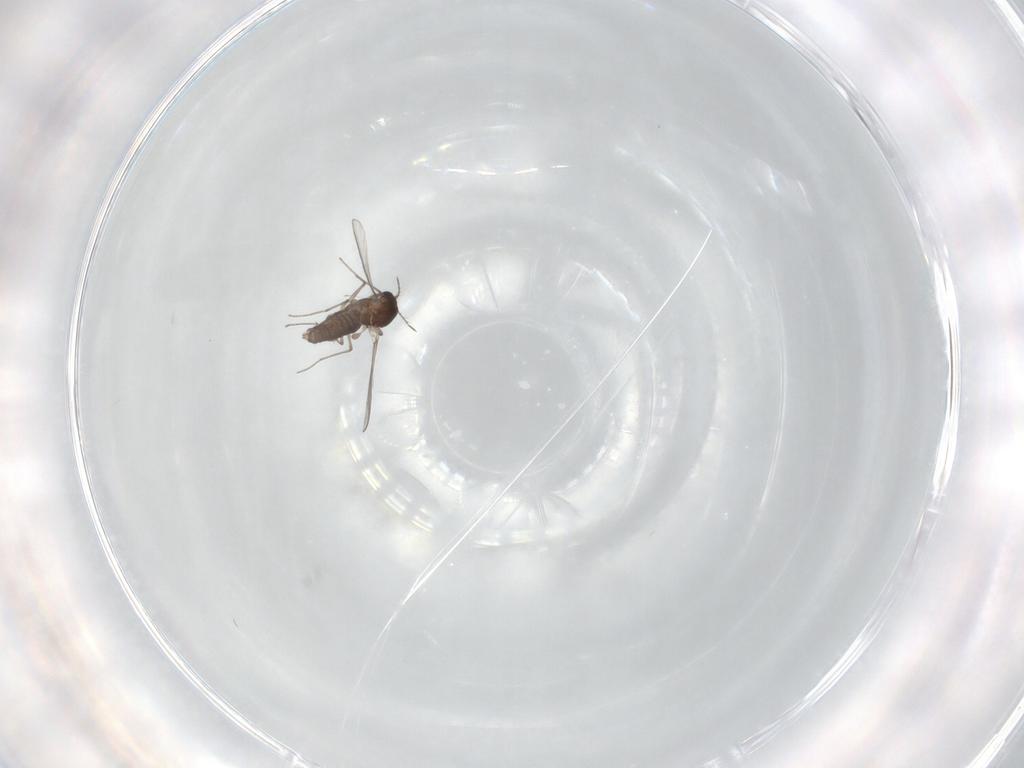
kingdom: Animalia
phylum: Arthropoda
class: Insecta
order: Diptera
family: Chironomidae
